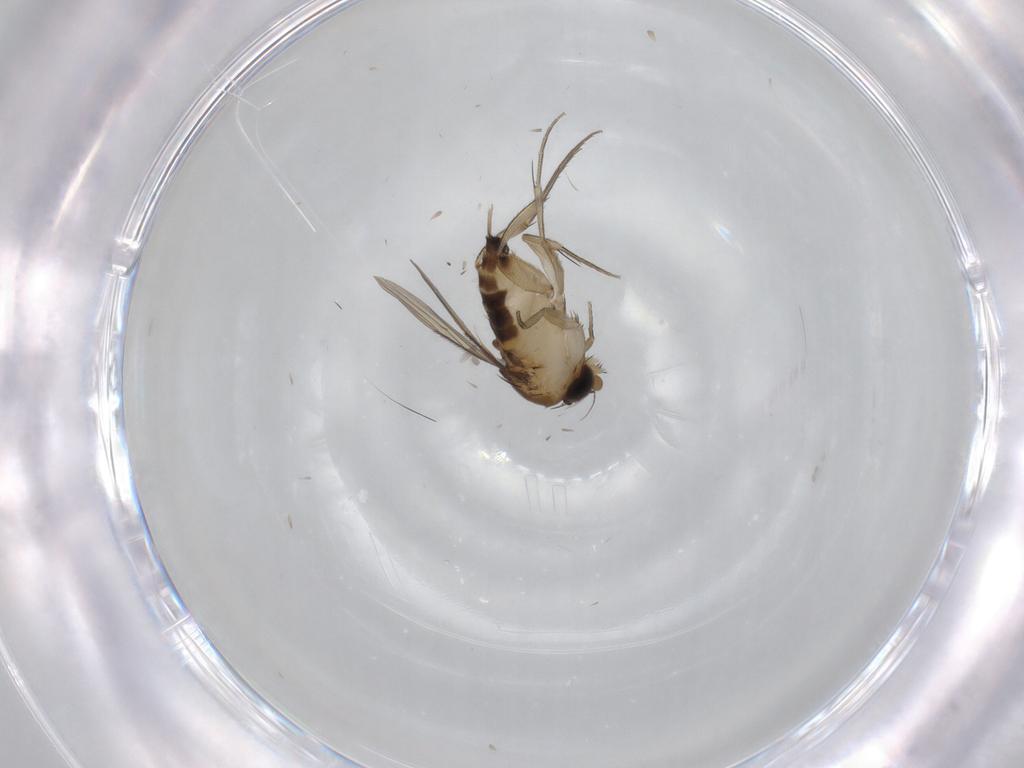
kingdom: Animalia
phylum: Arthropoda
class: Insecta
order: Diptera
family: Phoridae
